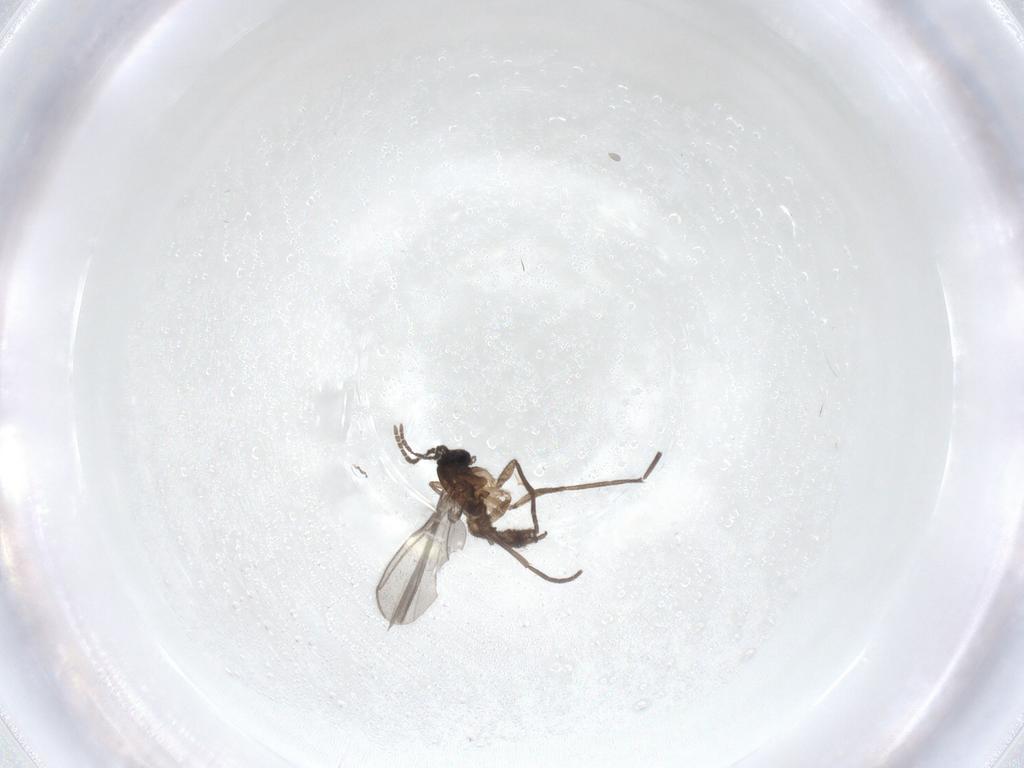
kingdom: Animalia
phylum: Arthropoda
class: Insecta
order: Diptera
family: Sciaridae
